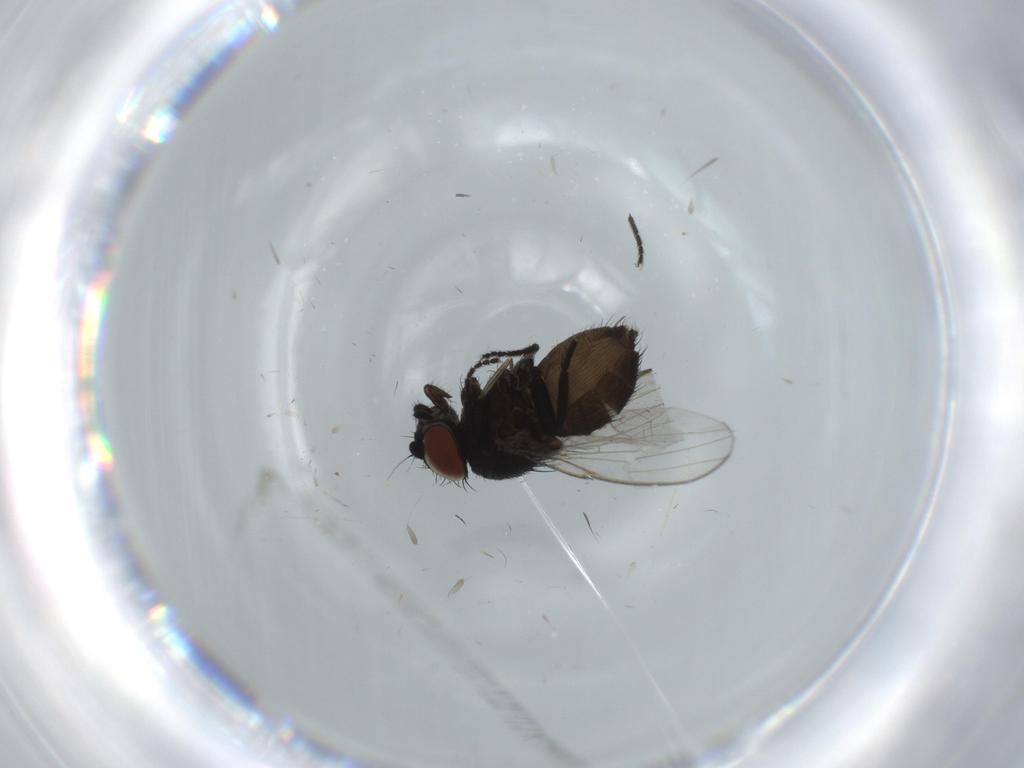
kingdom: Animalia
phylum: Arthropoda
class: Insecta
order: Diptera
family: Sciaridae
